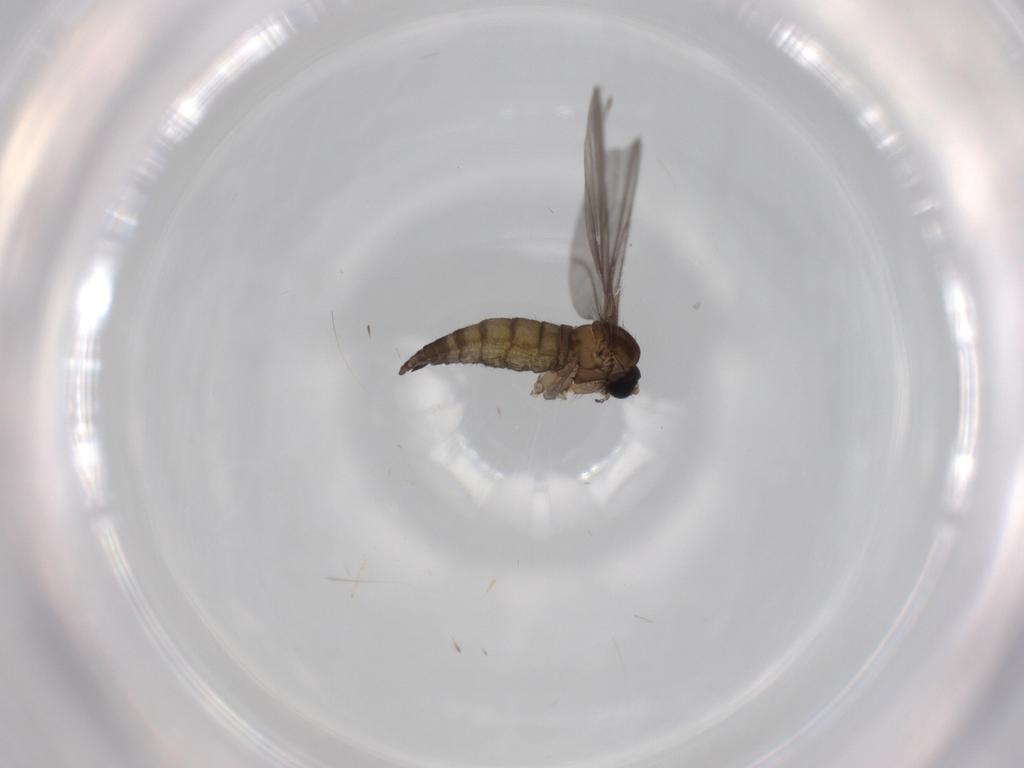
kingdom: Animalia
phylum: Arthropoda
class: Insecta
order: Diptera
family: Sciaridae
